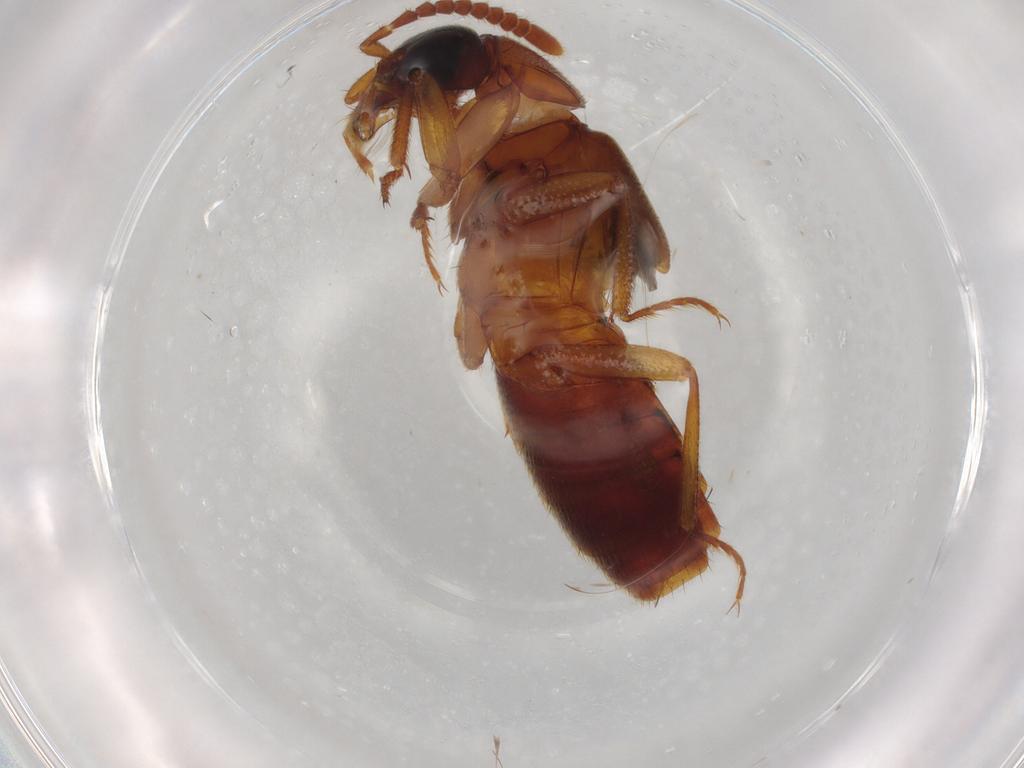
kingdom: Animalia
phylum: Arthropoda
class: Insecta
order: Coleoptera
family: Staphylinidae
